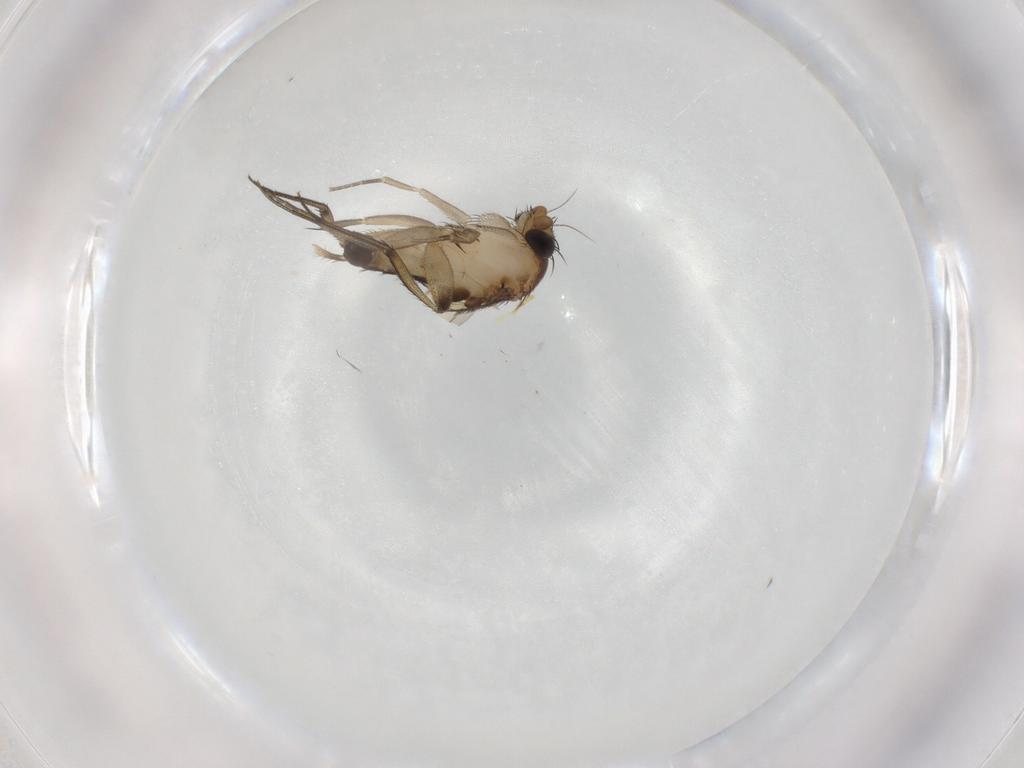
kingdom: Animalia
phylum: Arthropoda
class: Insecta
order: Diptera
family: Phoridae
